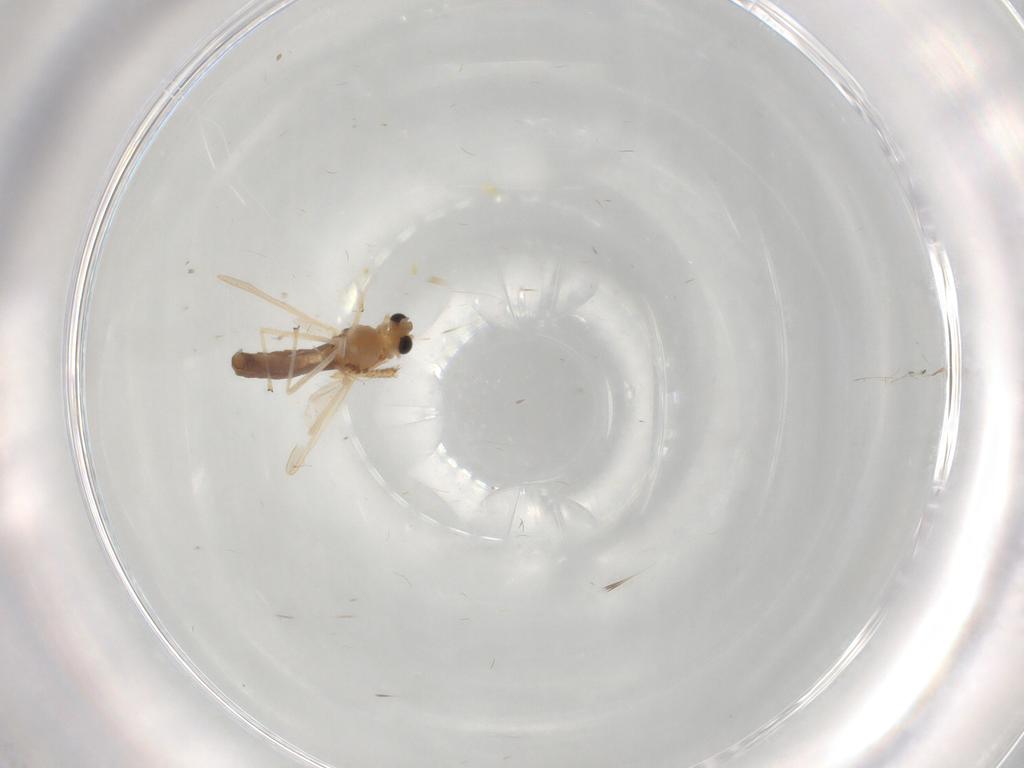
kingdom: Animalia
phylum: Arthropoda
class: Insecta
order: Diptera
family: Chironomidae
